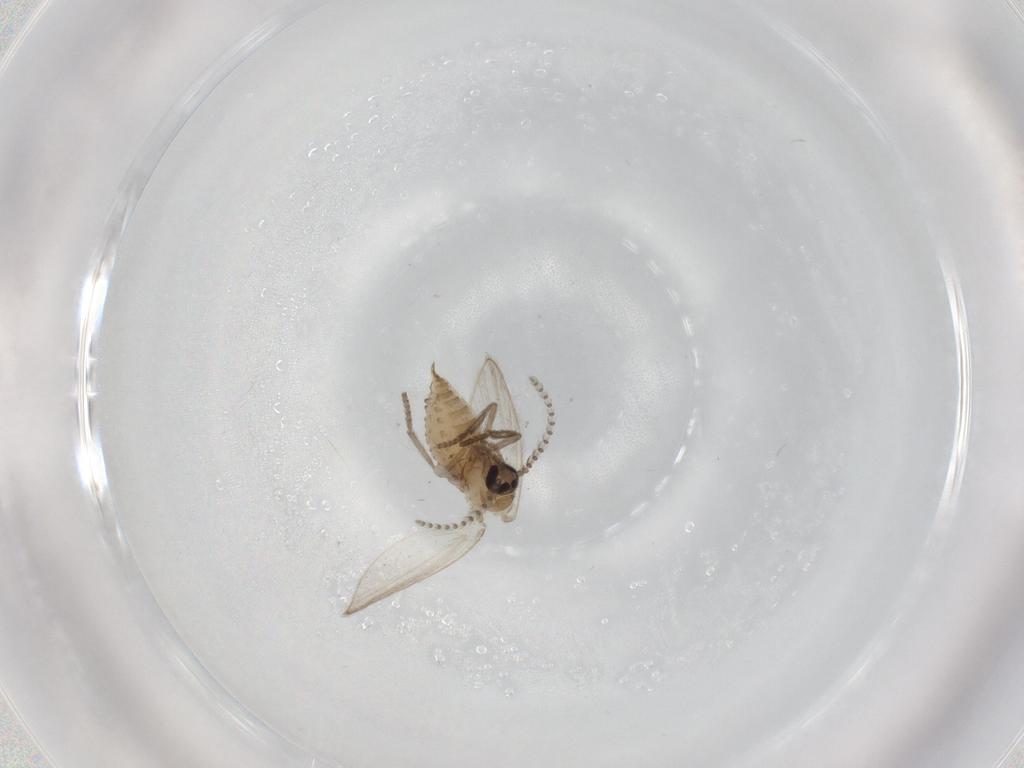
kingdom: Animalia
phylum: Arthropoda
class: Insecta
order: Diptera
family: Psychodidae
